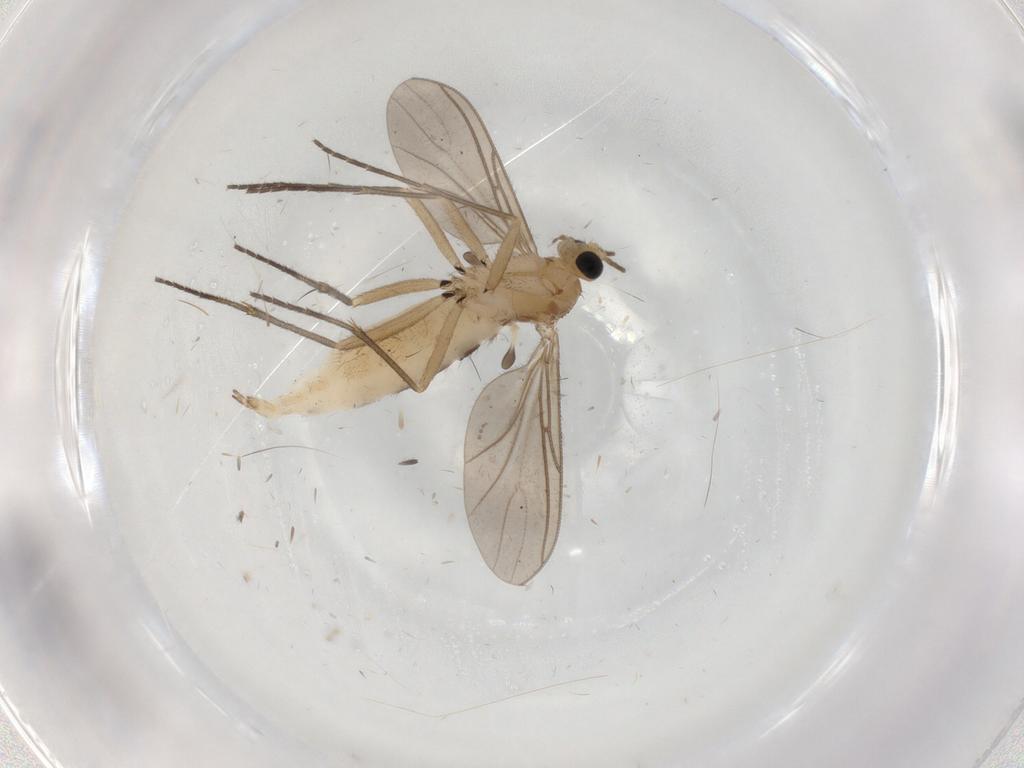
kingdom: Animalia
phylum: Arthropoda
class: Insecta
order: Diptera
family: Sciaridae
